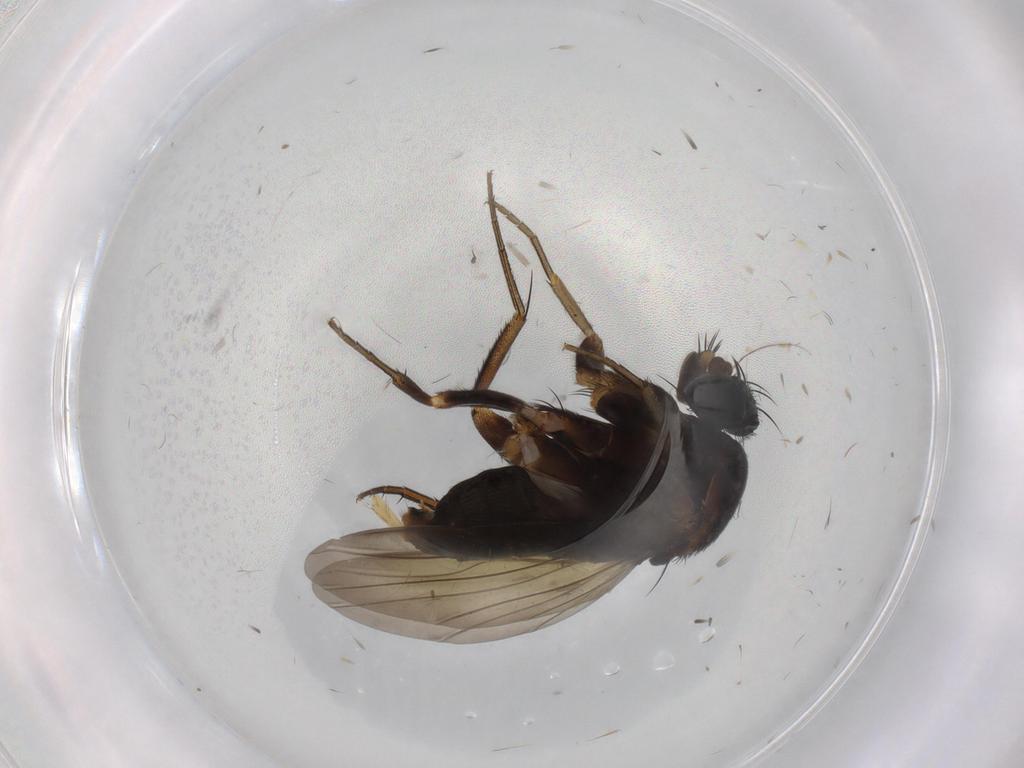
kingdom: Animalia
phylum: Arthropoda
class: Insecta
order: Diptera
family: Phoridae
